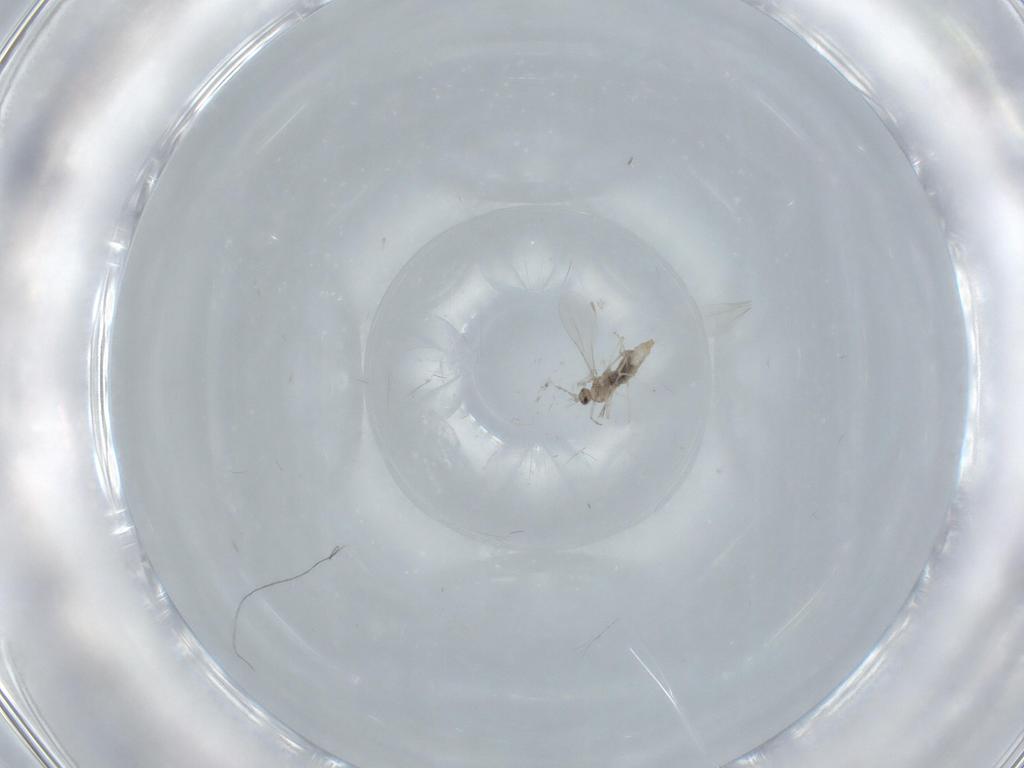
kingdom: Animalia
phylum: Arthropoda
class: Insecta
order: Diptera
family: Cecidomyiidae
